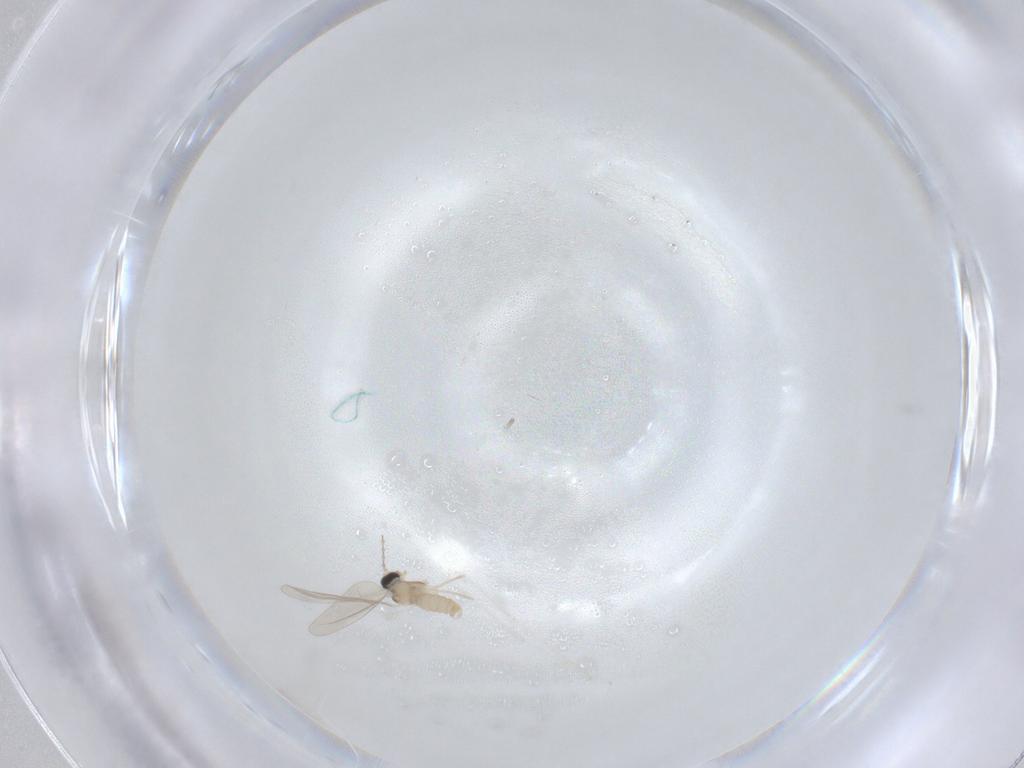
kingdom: Animalia
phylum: Arthropoda
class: Insecta
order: Diptera
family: Cecidomyiidae
